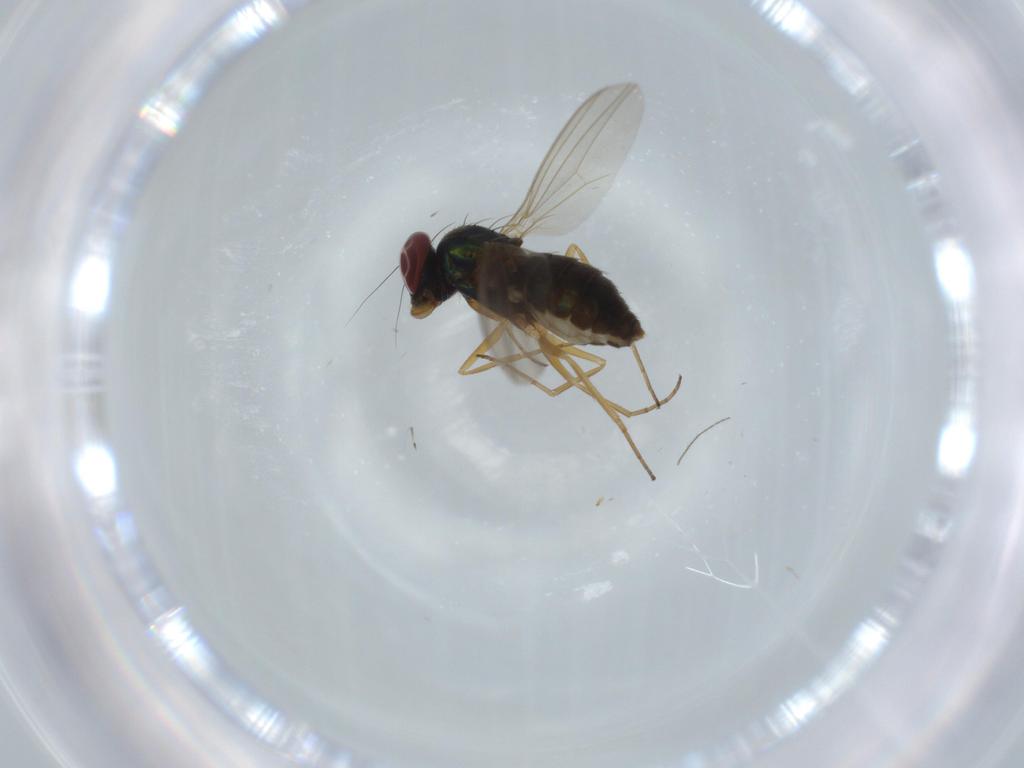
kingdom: Animalia
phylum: Arthropoda
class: Insecta
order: Diptera
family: Dolichopodidae
